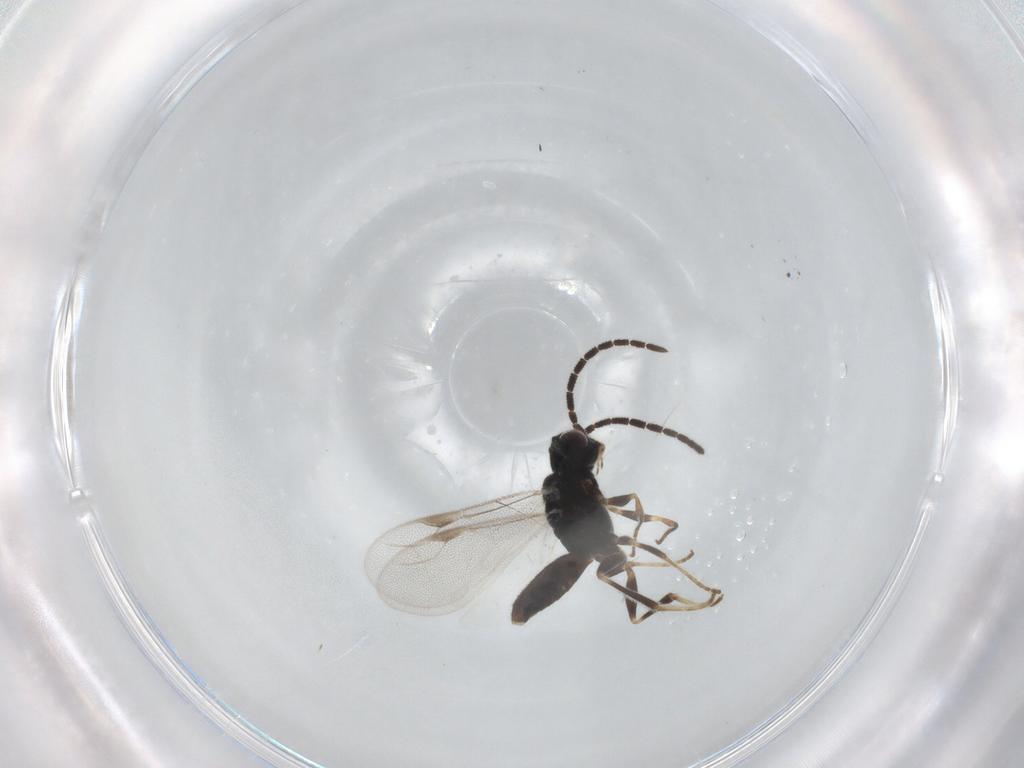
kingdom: Animalia
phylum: Arthropoda
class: Insecta
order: Hymenoptera
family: Dryinidae
